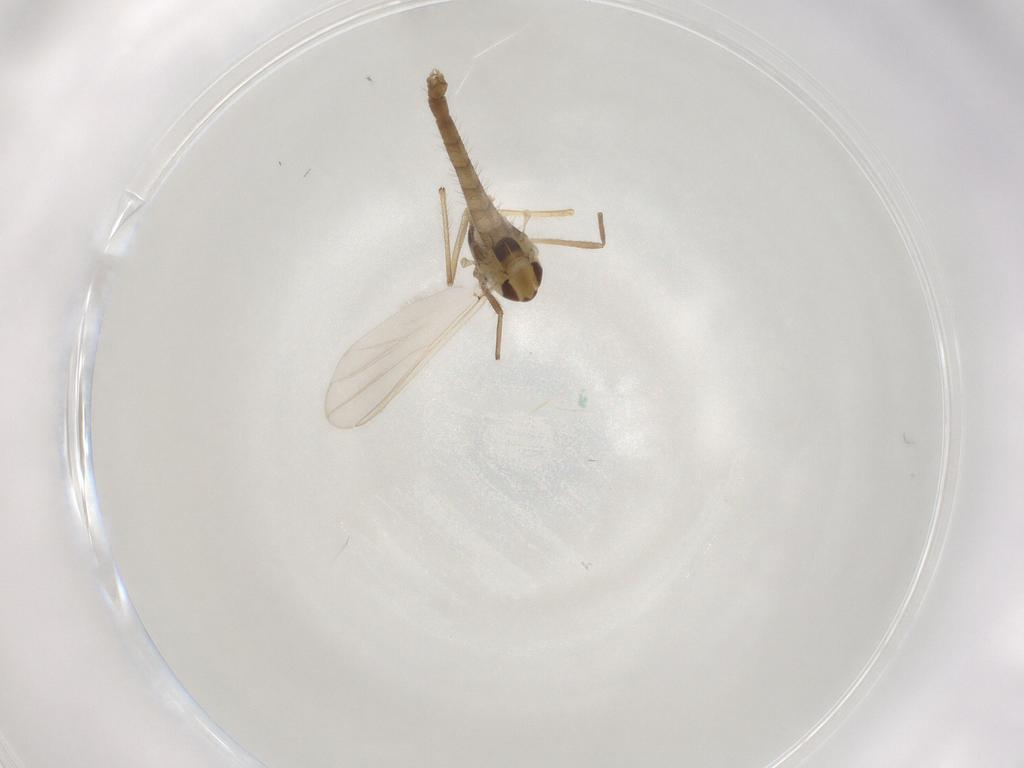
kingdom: Animalia
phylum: Arthropoda
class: Insecta
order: Diptera
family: Chironomidae
